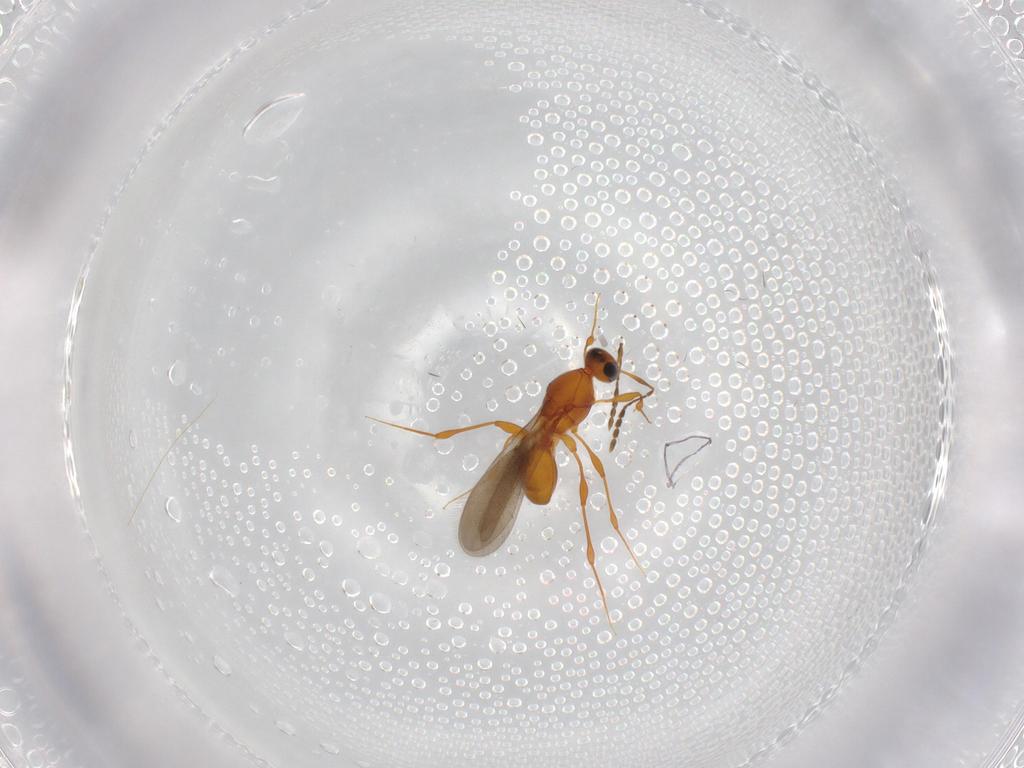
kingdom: Animalia
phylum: Arthropoda
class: Insecta
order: Hymenoptera
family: Platygastridae
